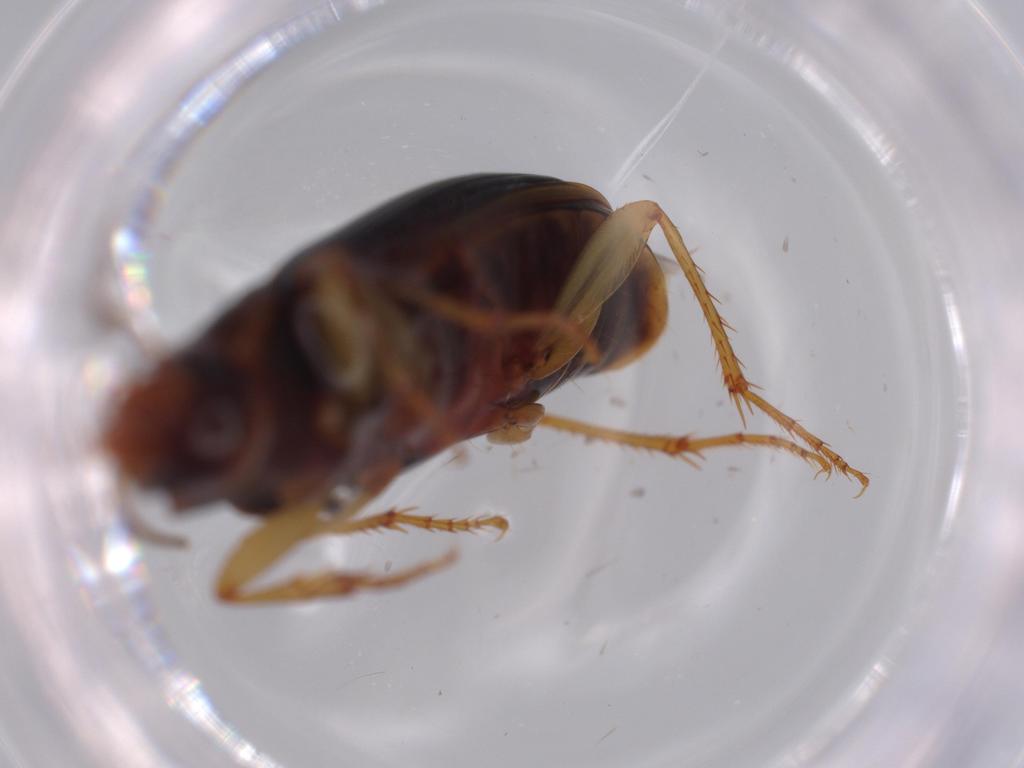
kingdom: Animalia
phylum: Arthropoda
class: Insecta
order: Coleoptera
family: Carabidae
